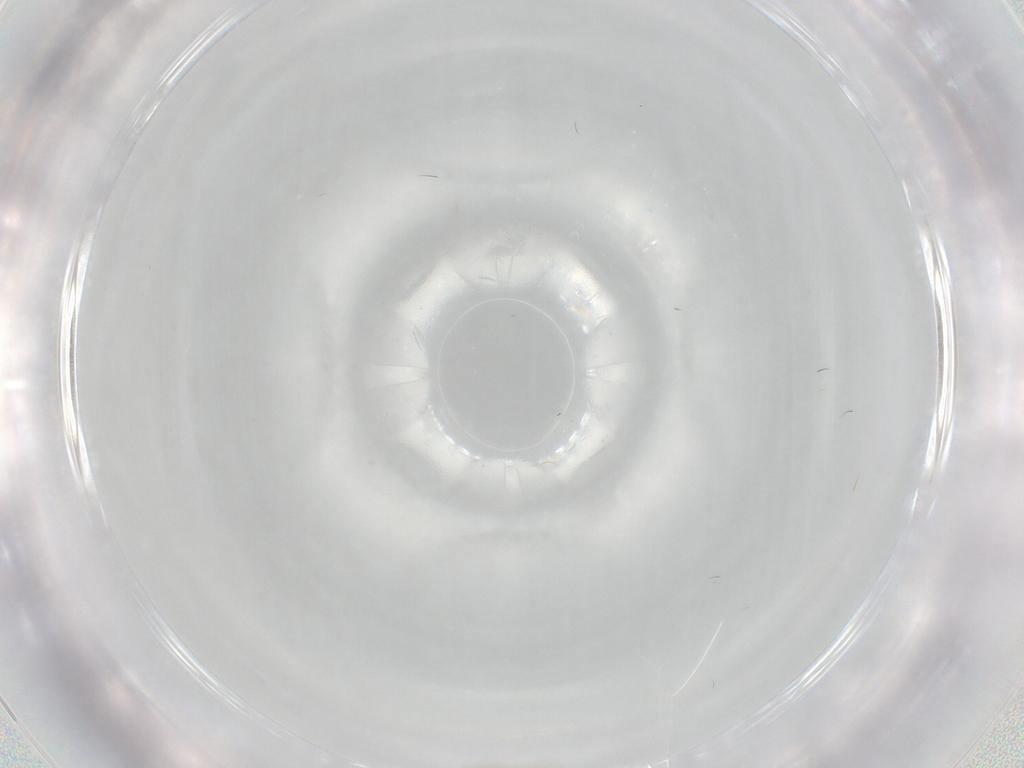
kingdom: Animalia
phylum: Arthropoda
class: Insecta
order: Diptera
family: Cecidomyiidae
